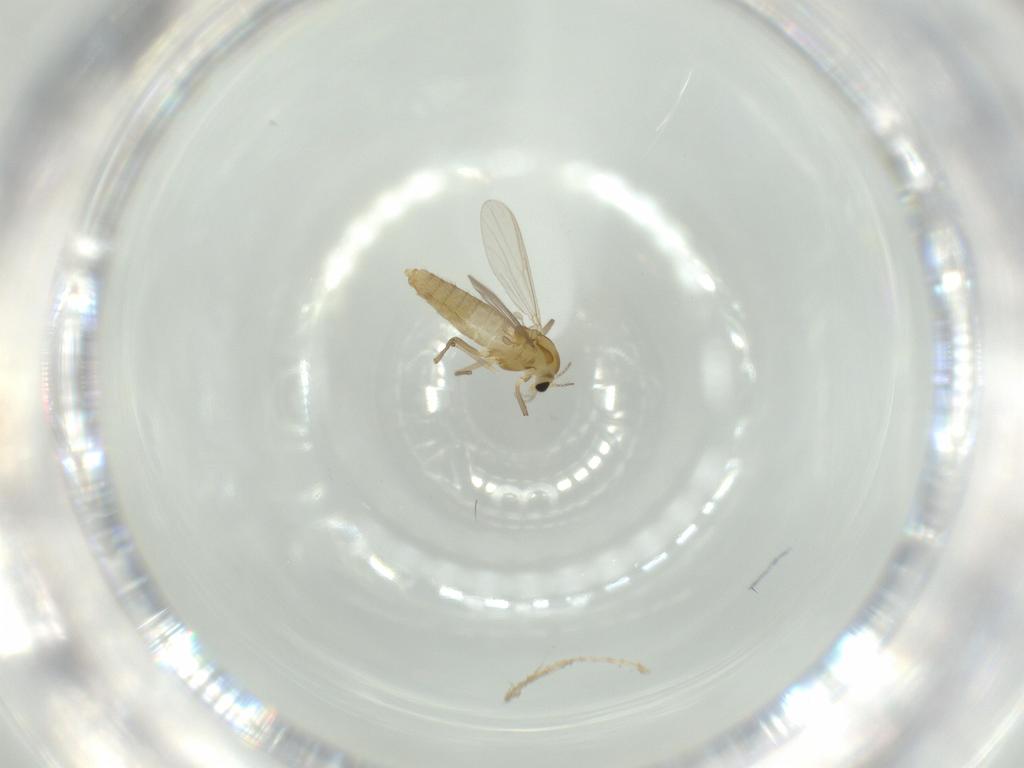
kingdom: Animalia
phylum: Arthropoda
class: Insecta
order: Diptera
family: Chironomidae
